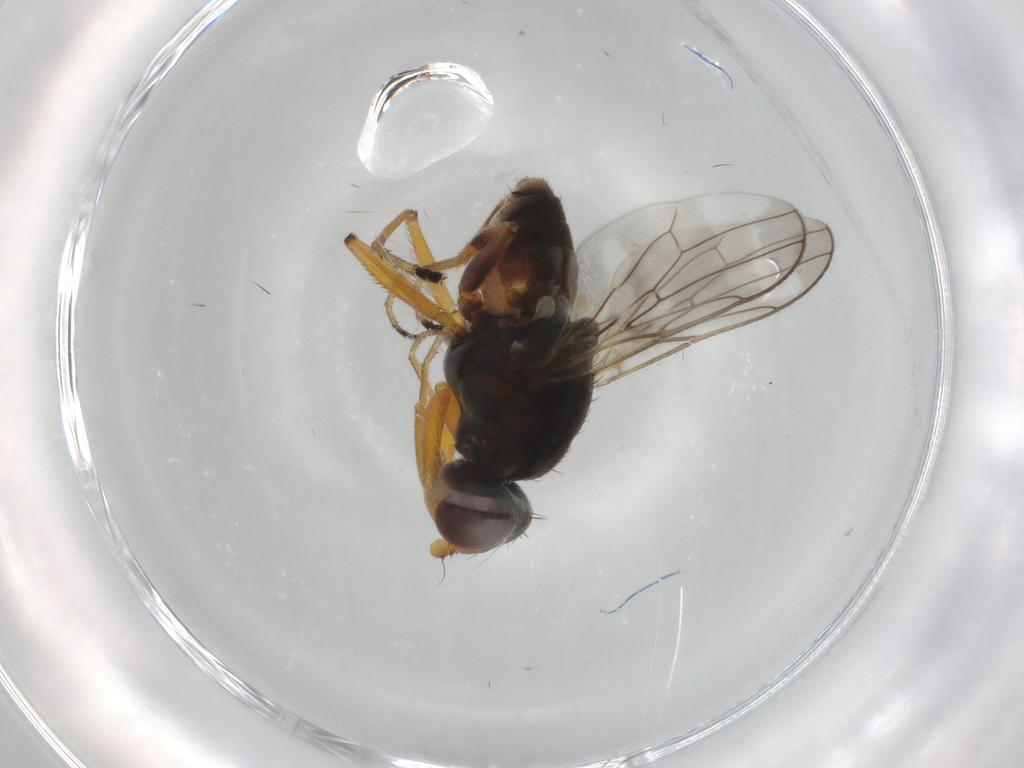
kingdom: Animalia
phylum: Arthropoda
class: Insecta
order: Diptera
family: Chloropidae
